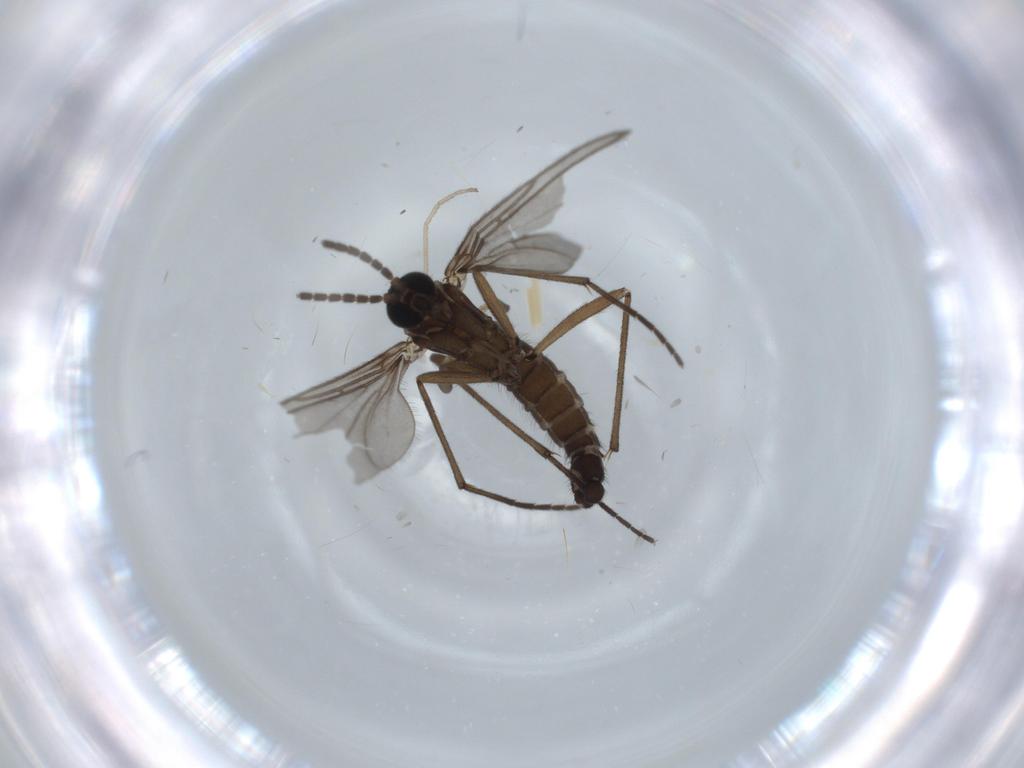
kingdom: Animalia
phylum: Arthropoda
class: Insecta
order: Diptera
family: Sciaridae
